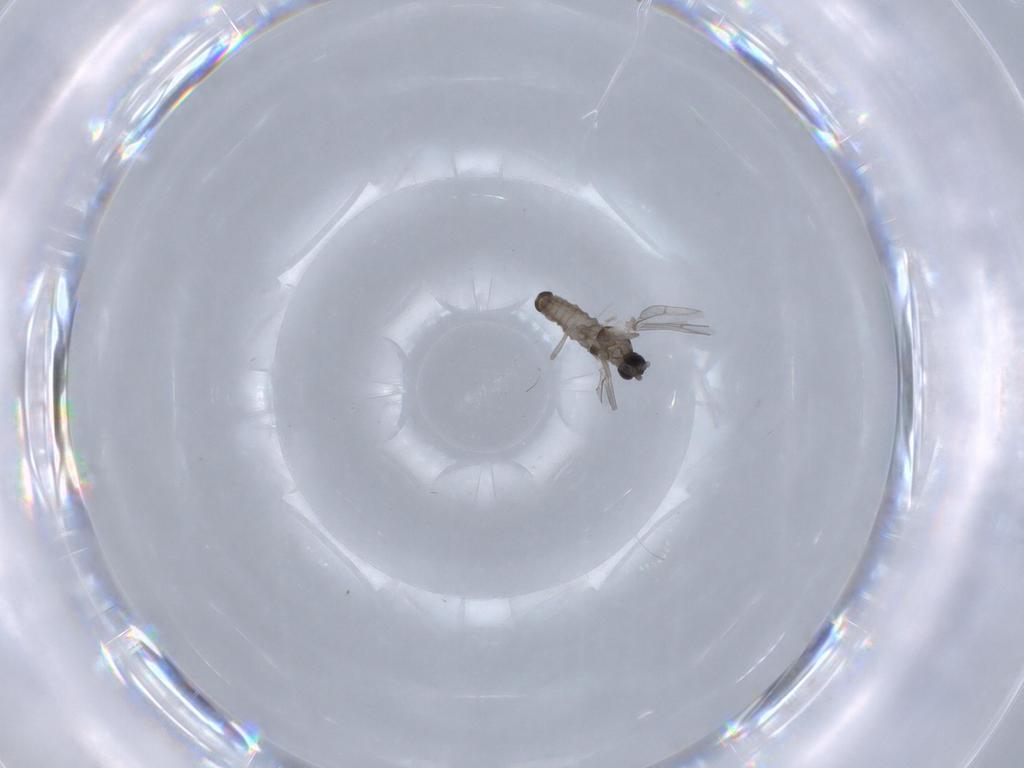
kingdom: Animalia
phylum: Arthropoda
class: Insecta
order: Diptera
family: Cecidomyiidae
